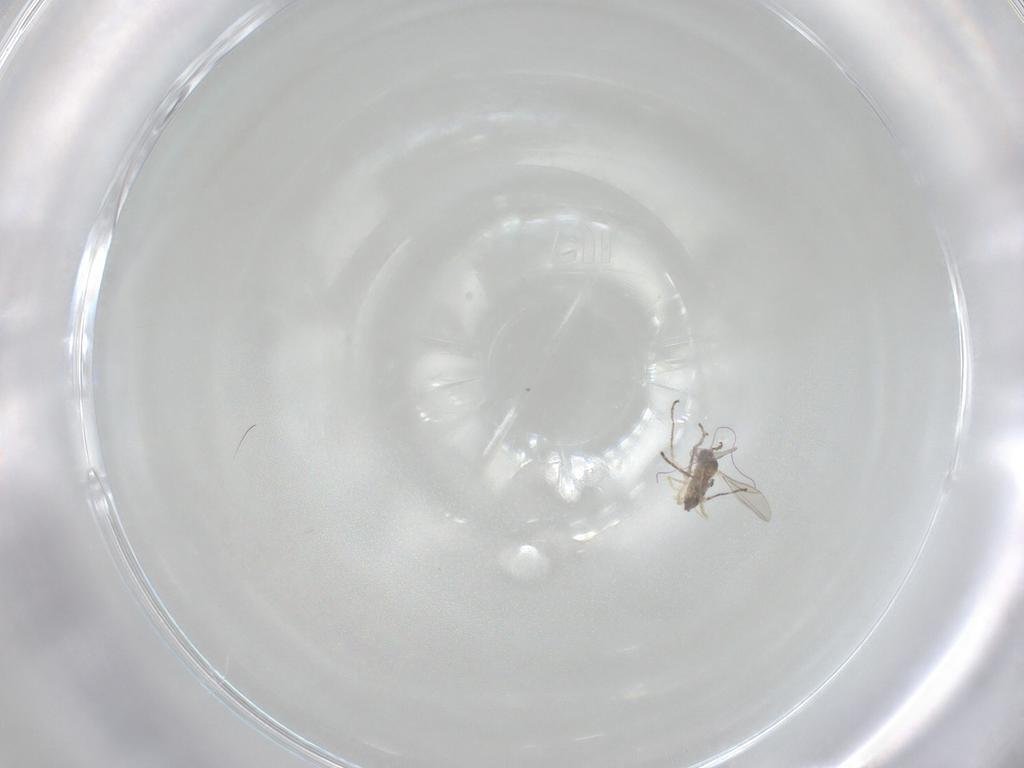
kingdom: Animalia
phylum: Arthropoda
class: Insecta
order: Diptera
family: Cecidomyiidae
